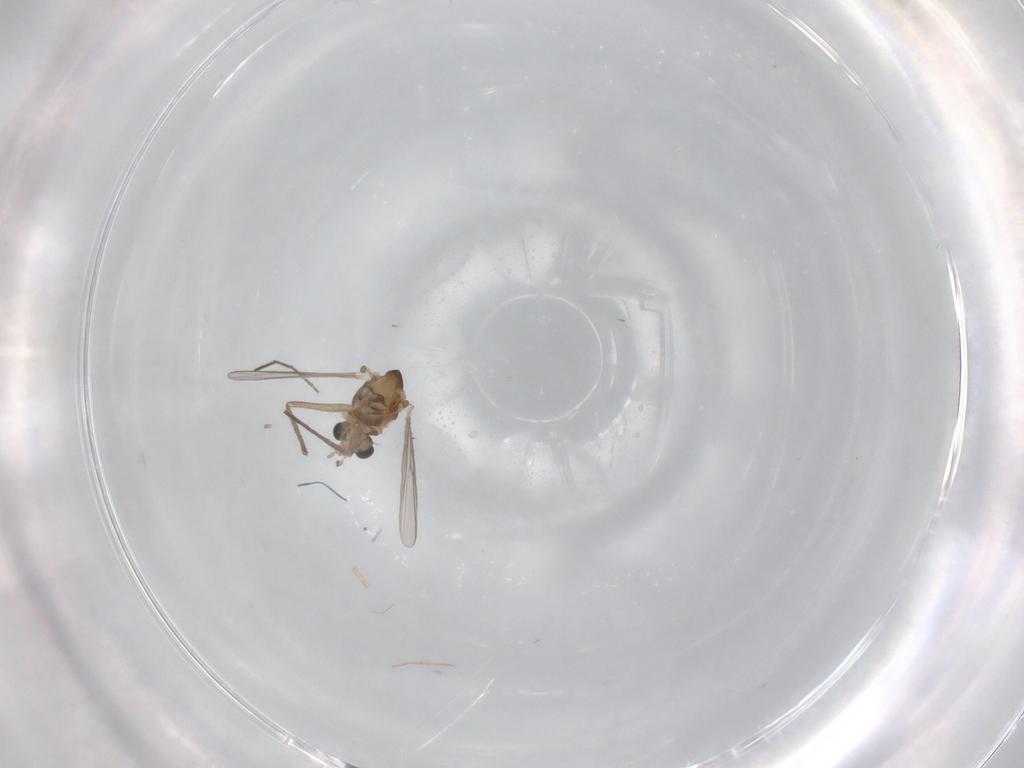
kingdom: Animalia
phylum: Arthropoda
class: Insecta
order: Diptera
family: Chironomidae
